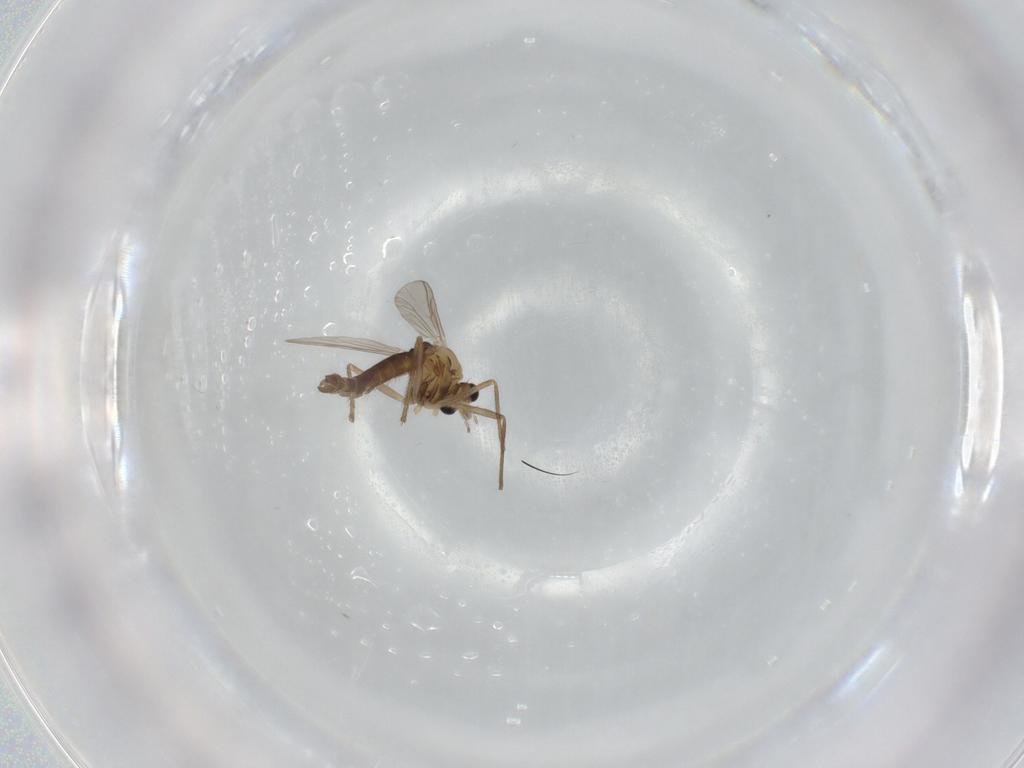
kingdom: Animalia
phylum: Arthropoda
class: Insecta
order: Diptera
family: Chironomidae
